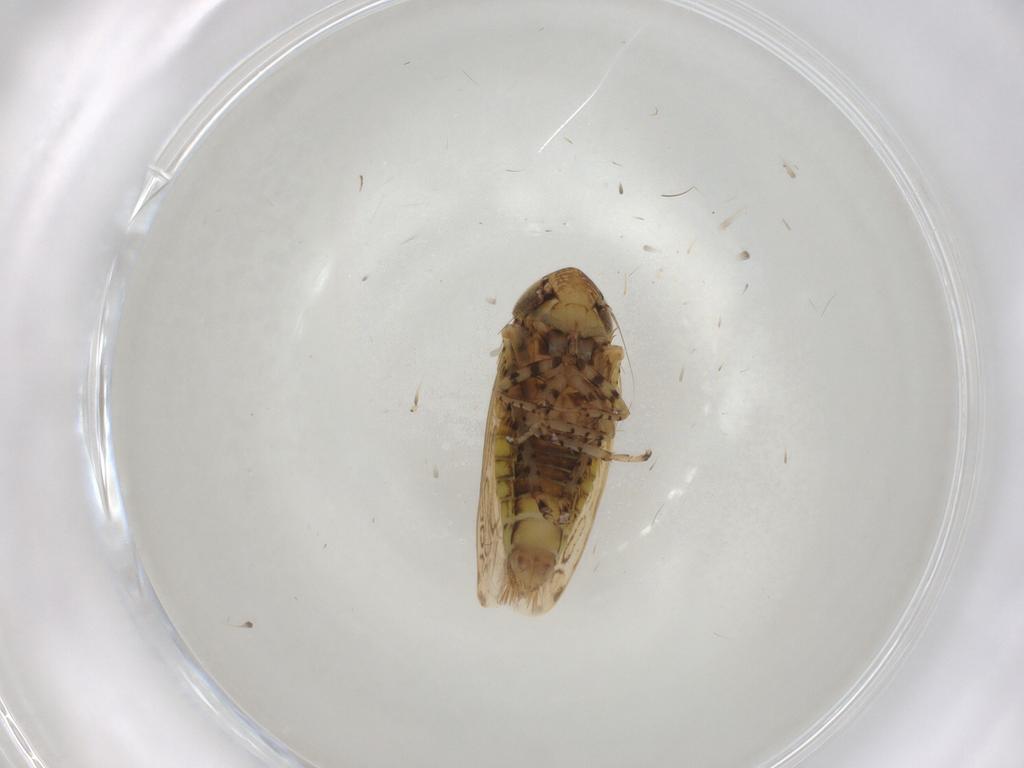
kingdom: Animalia
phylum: Arthropoda
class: Insecta
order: Hemiptera
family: Cicadellidae
